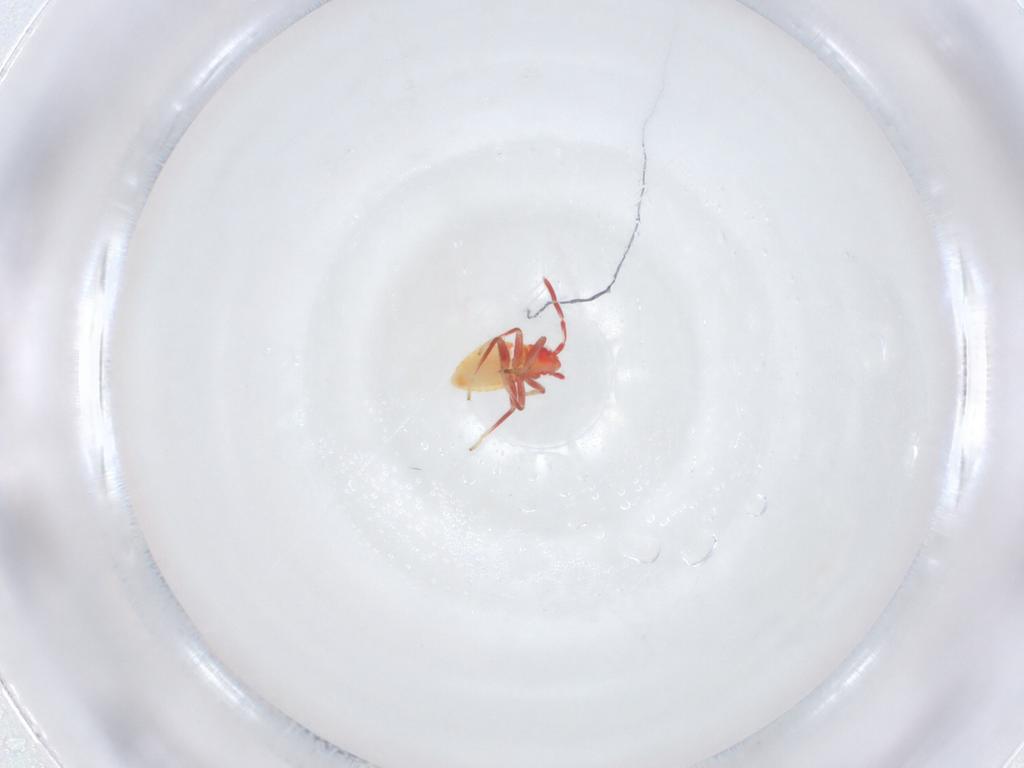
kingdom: Animalia
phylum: Arthropoda
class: Insecta
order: Hemiptera
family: Miridae
